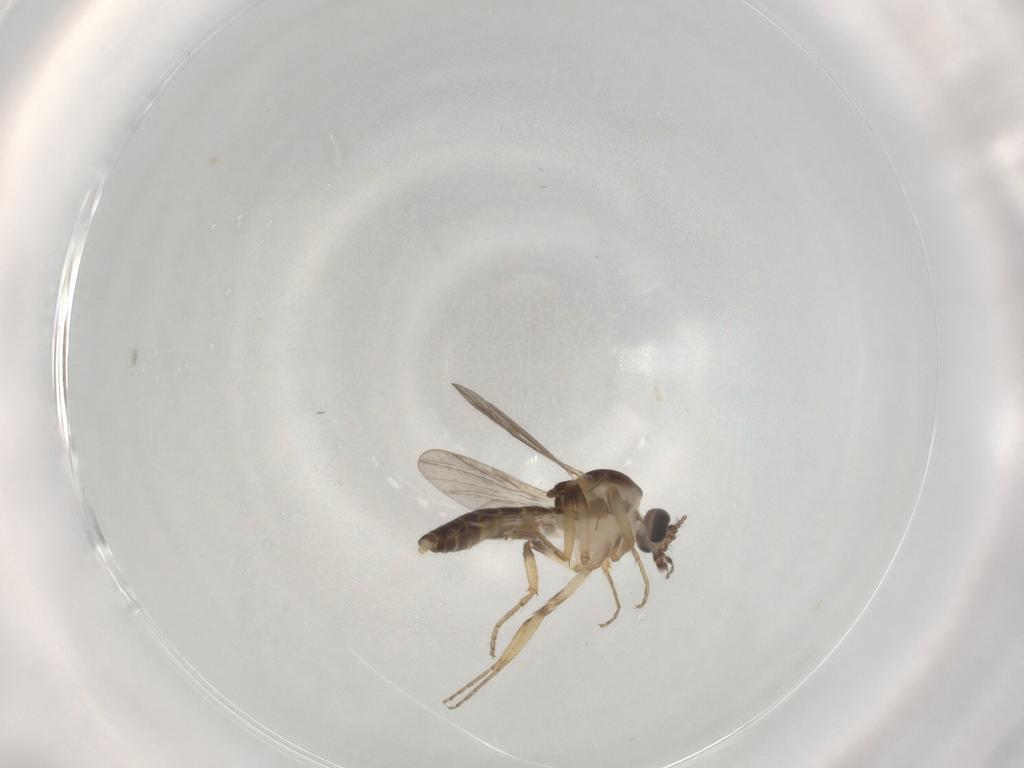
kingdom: Animalia
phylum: Arthropoda
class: Insecta
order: Diptera
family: Ceratopogonidae
